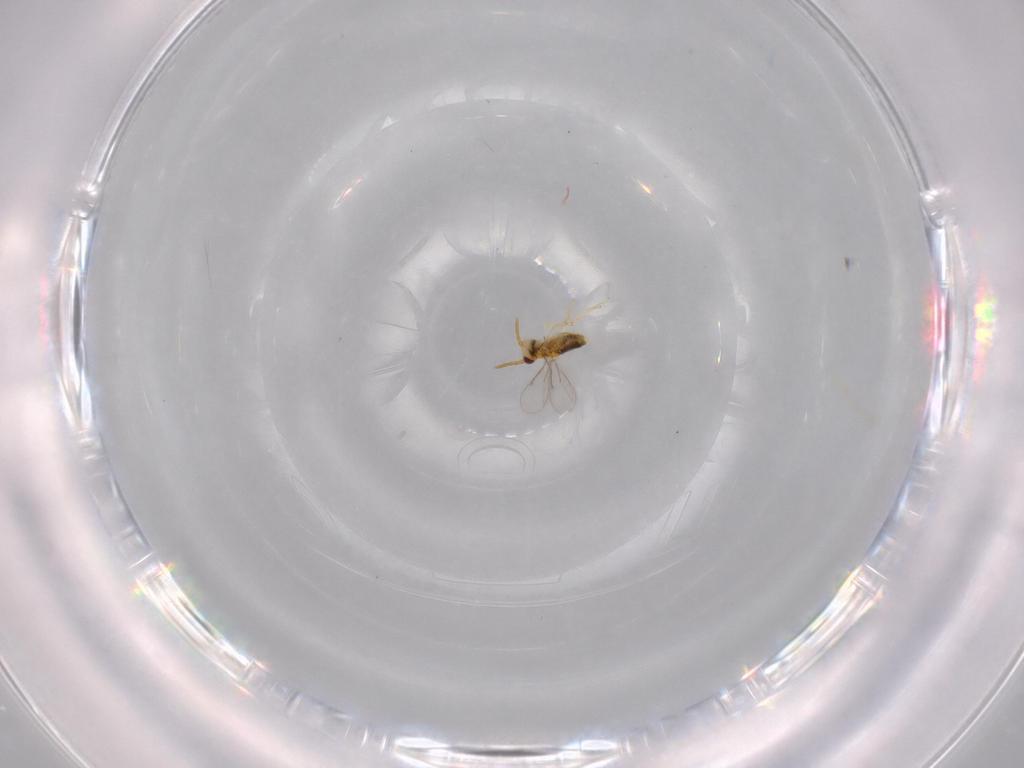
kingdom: Animalia
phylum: Arthropoda
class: Insecta
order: Hymenoptera
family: Aphelinidae
